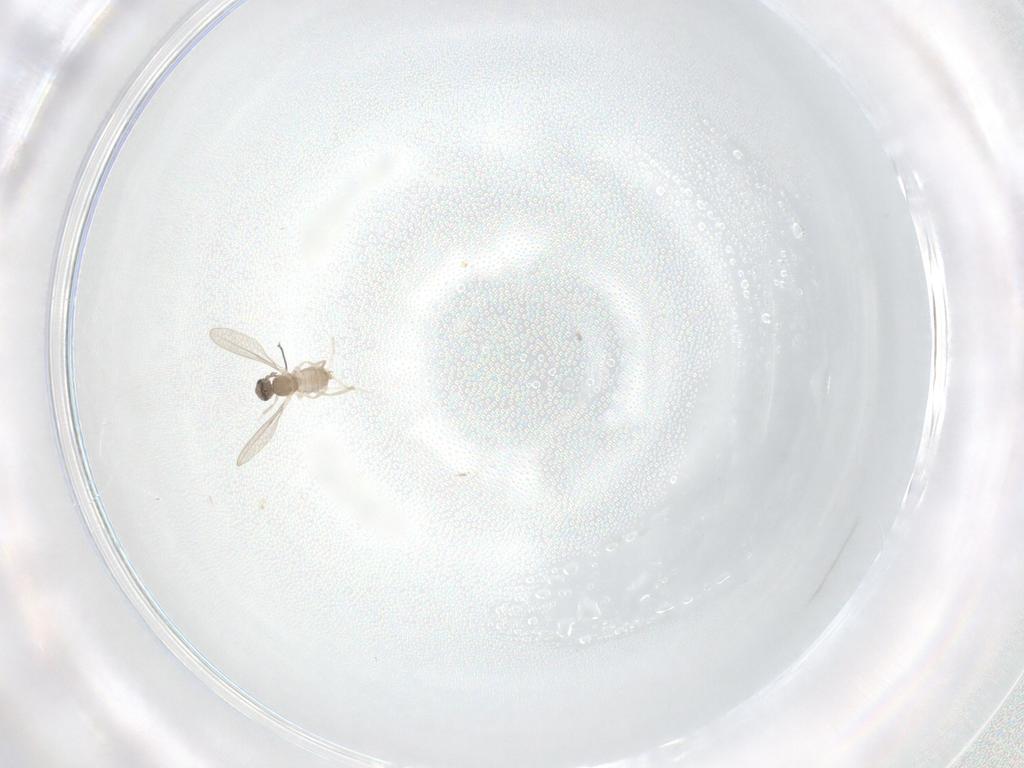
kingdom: Animalia
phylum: Arthropoda
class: Insecta
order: Diptera
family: Cecidomyiidae
